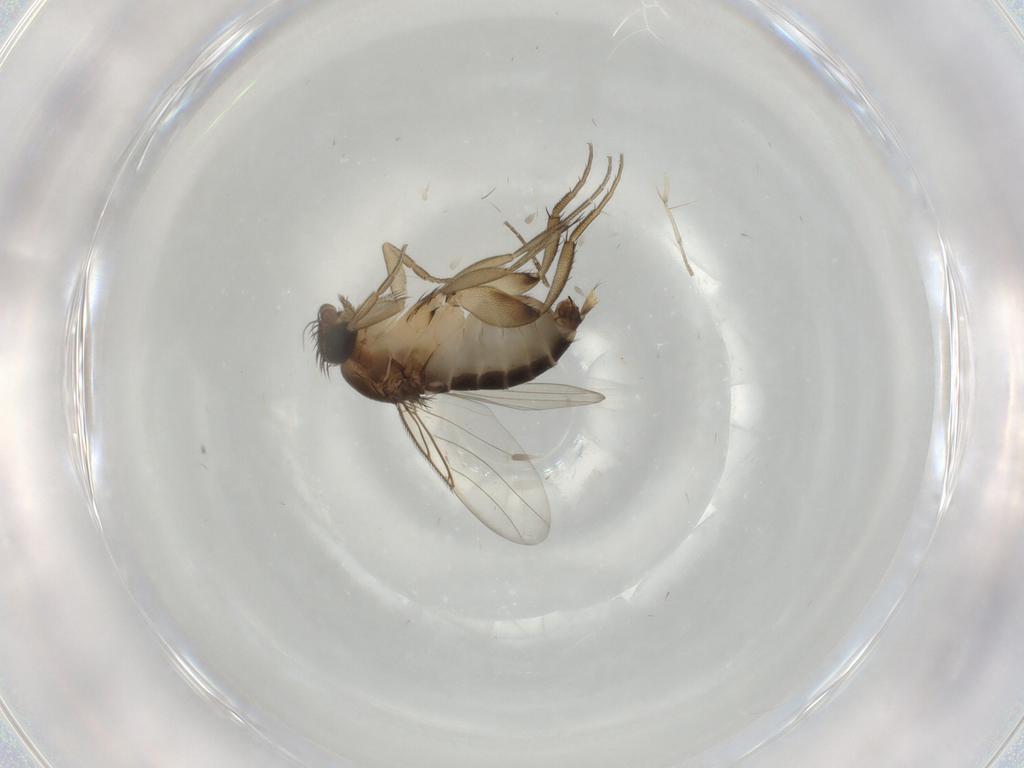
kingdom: Animalia
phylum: Arthropoda
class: Insecta
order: Diptera
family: Phoridae
